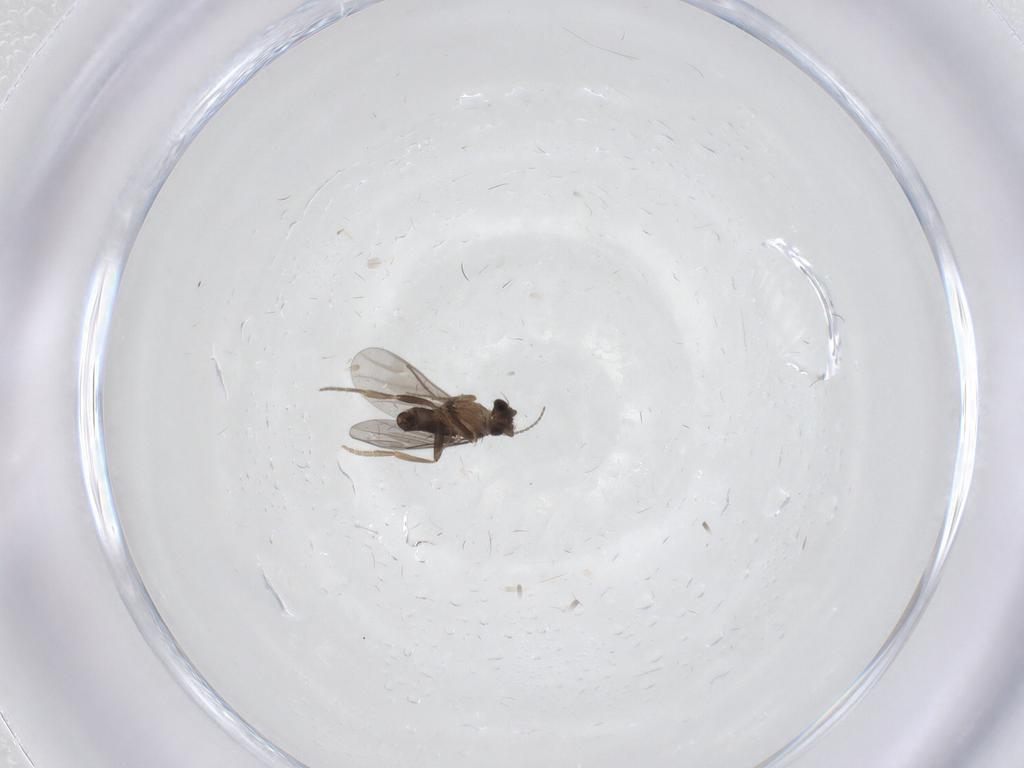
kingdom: Animalia
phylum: Arthropoda
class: Insecta
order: Diptera
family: Cecidomyiidae
